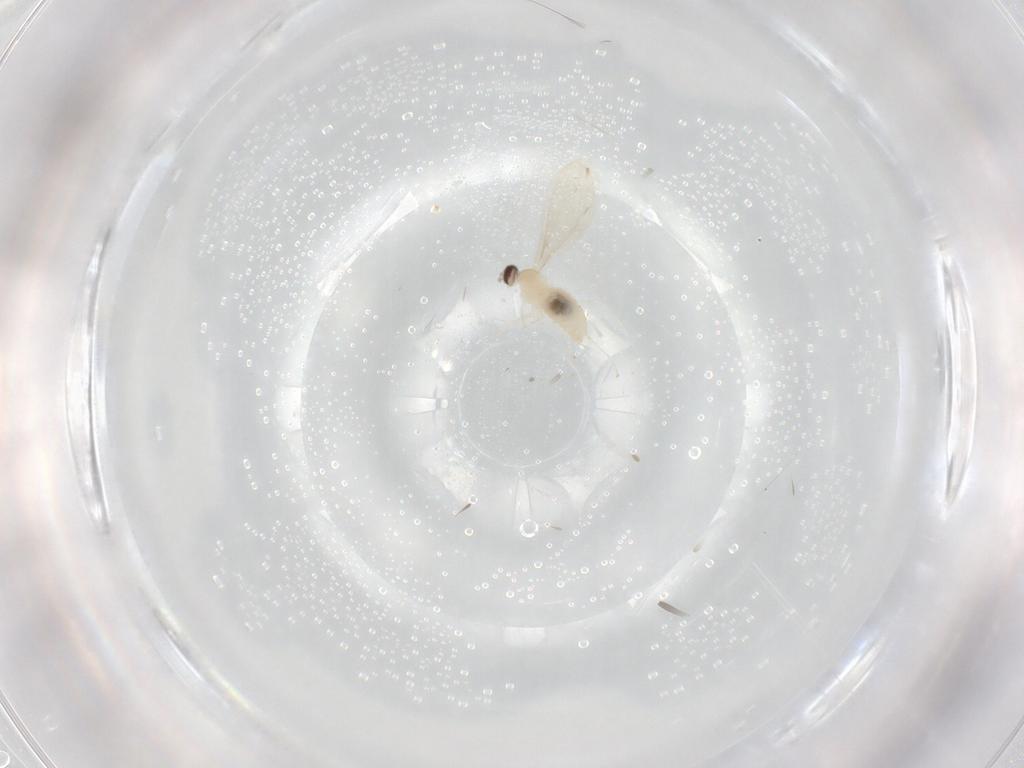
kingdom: Animalia
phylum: Arthropoda
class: Insecta
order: Diptera
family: Cecidomyiidae
